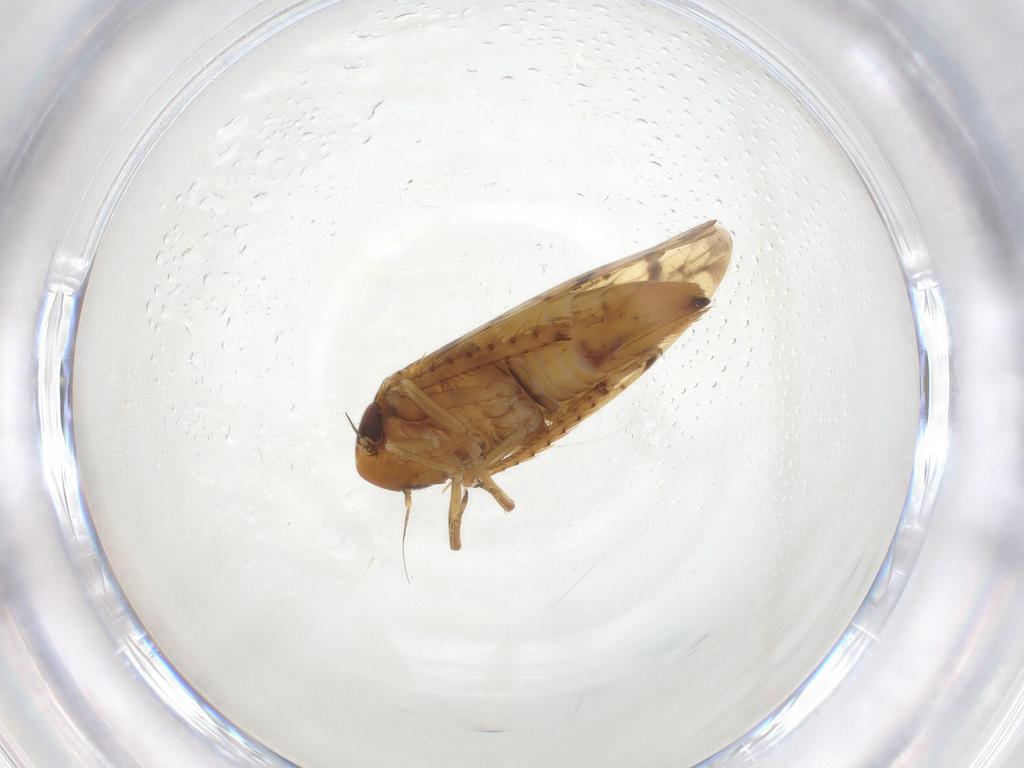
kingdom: Animalia
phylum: Arthropoda
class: Insecta
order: Hemiptera
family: Cicadellidae
